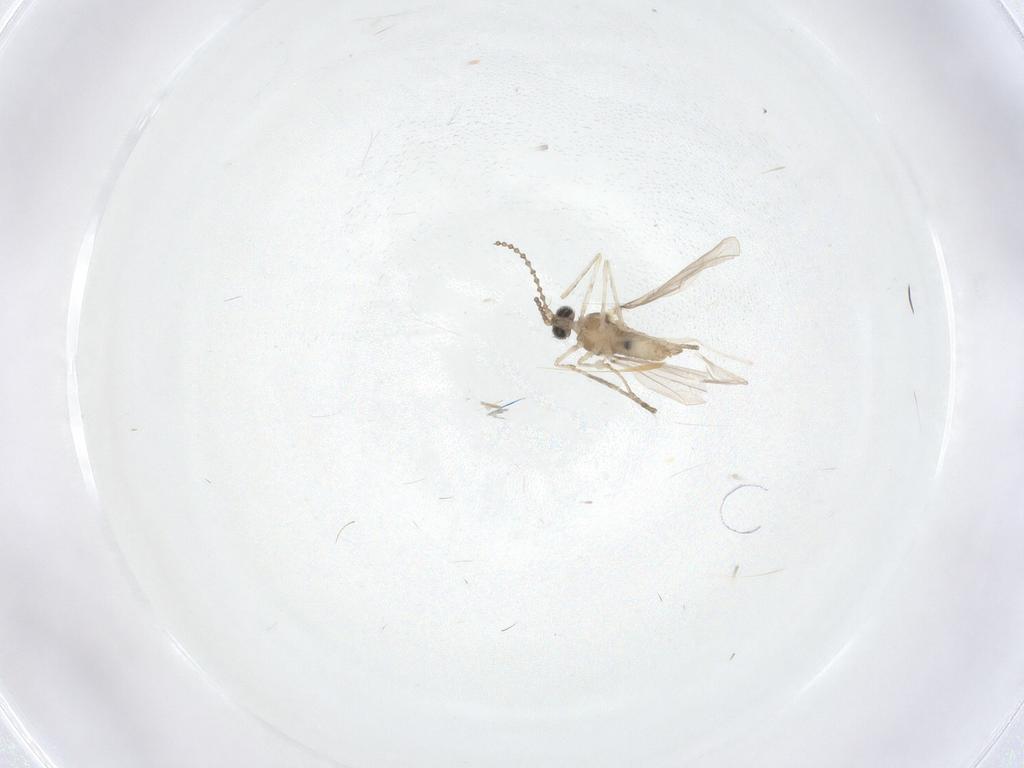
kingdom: Animalia
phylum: Arthropoda
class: Insecta
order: Diptera
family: Cecidomyiidae
